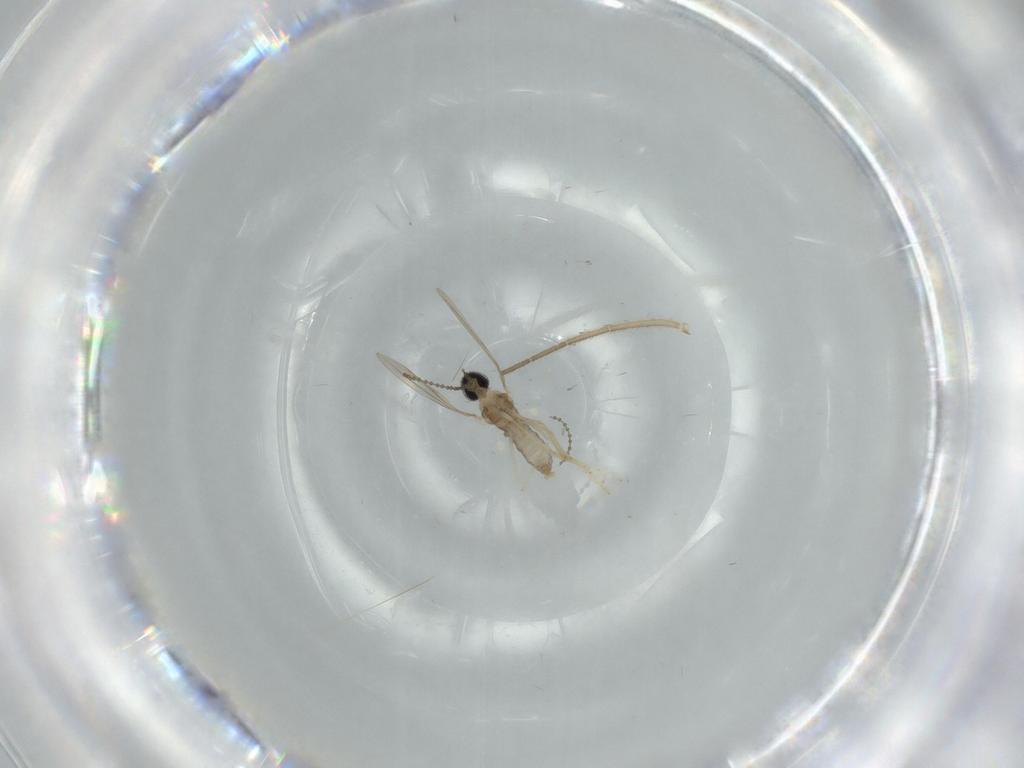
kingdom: Animalia
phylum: Arthropoda
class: Insecta
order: Diptera
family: Cecidomyiidae
